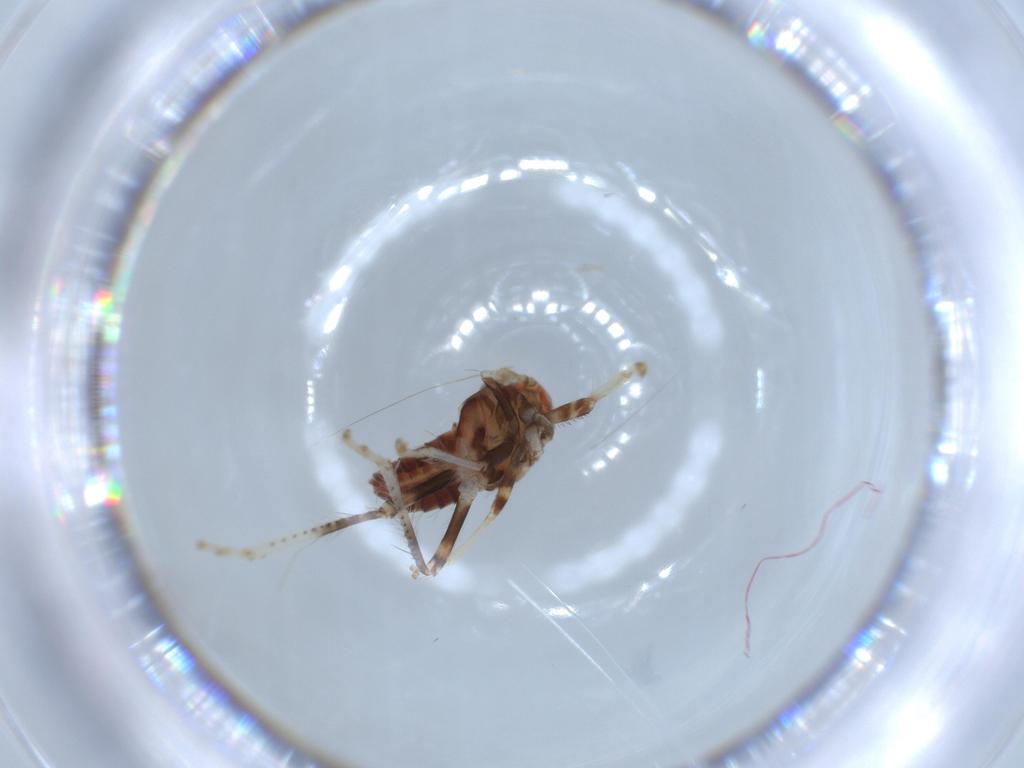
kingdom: Animalia
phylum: Arthropoda
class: Insecta
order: Hemiptera
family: Cicadellidae
